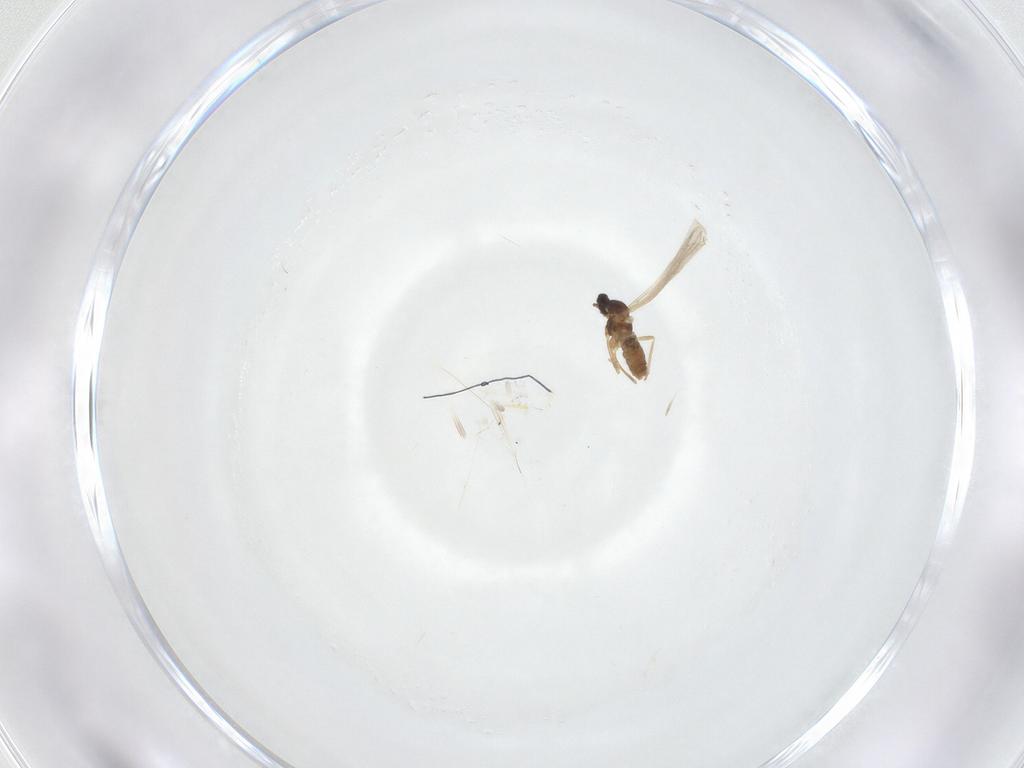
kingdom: Animalia
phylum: Arthropoda
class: Insecta
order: Diptera
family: Cecidomyiidae
